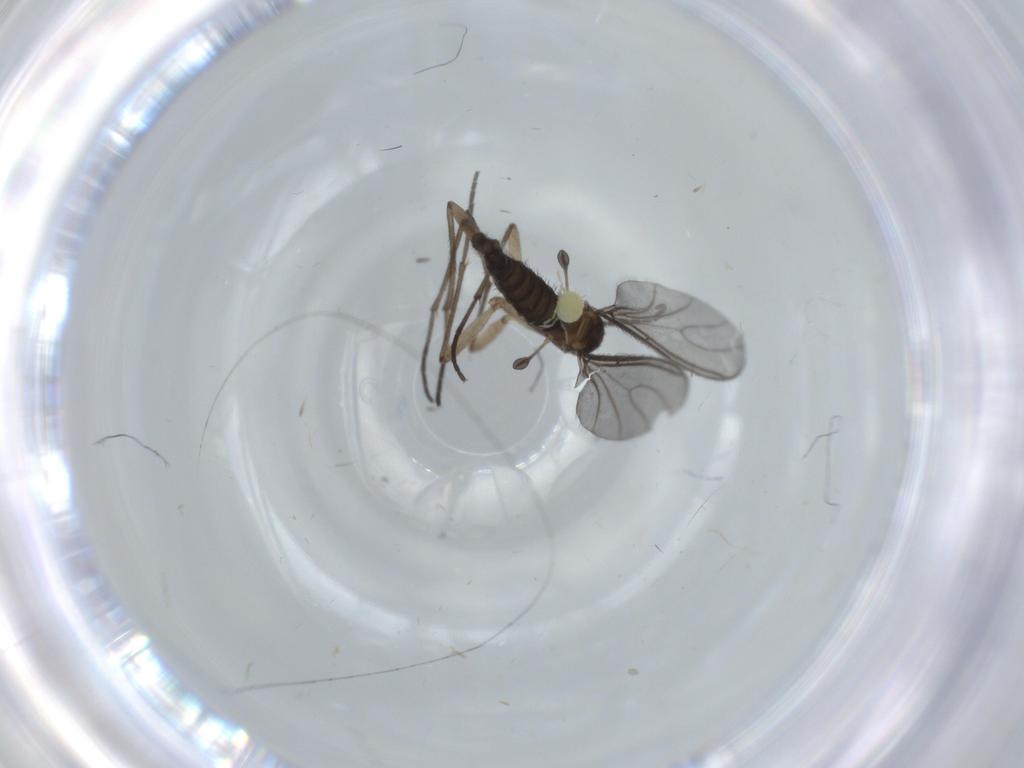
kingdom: Animalia
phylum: Arthropoda
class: Insecta
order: Diptera
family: Sciaridae
